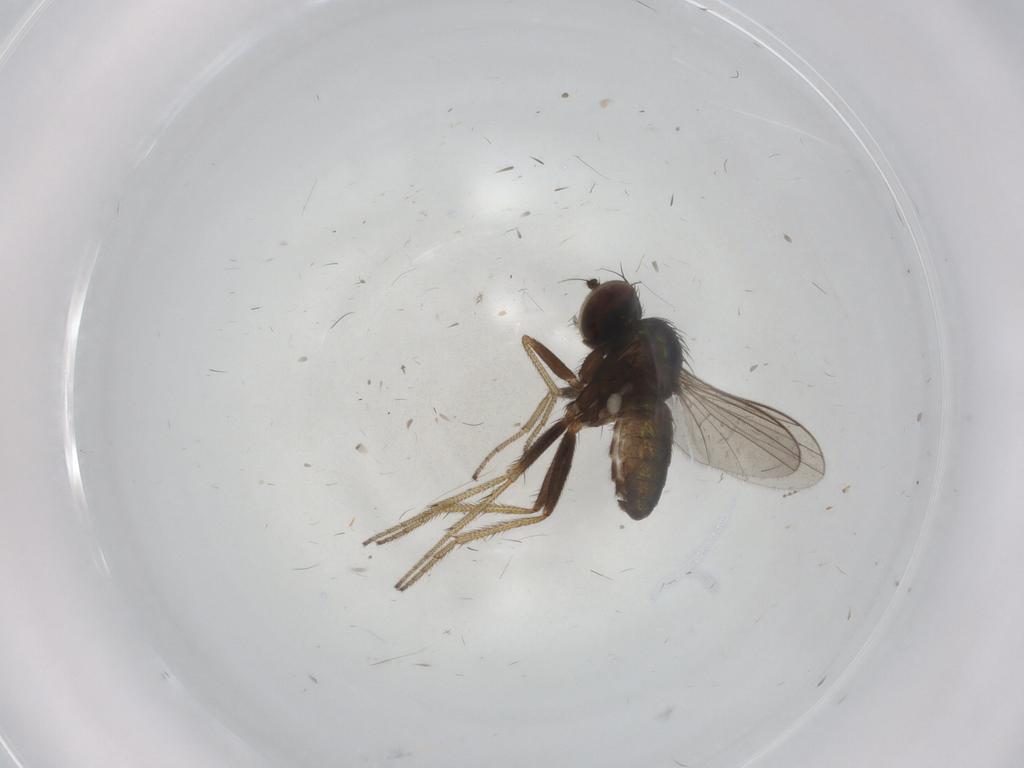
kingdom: Animalia
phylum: Arthropoda
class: Insecta
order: Diptera
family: Dolichopodidae
